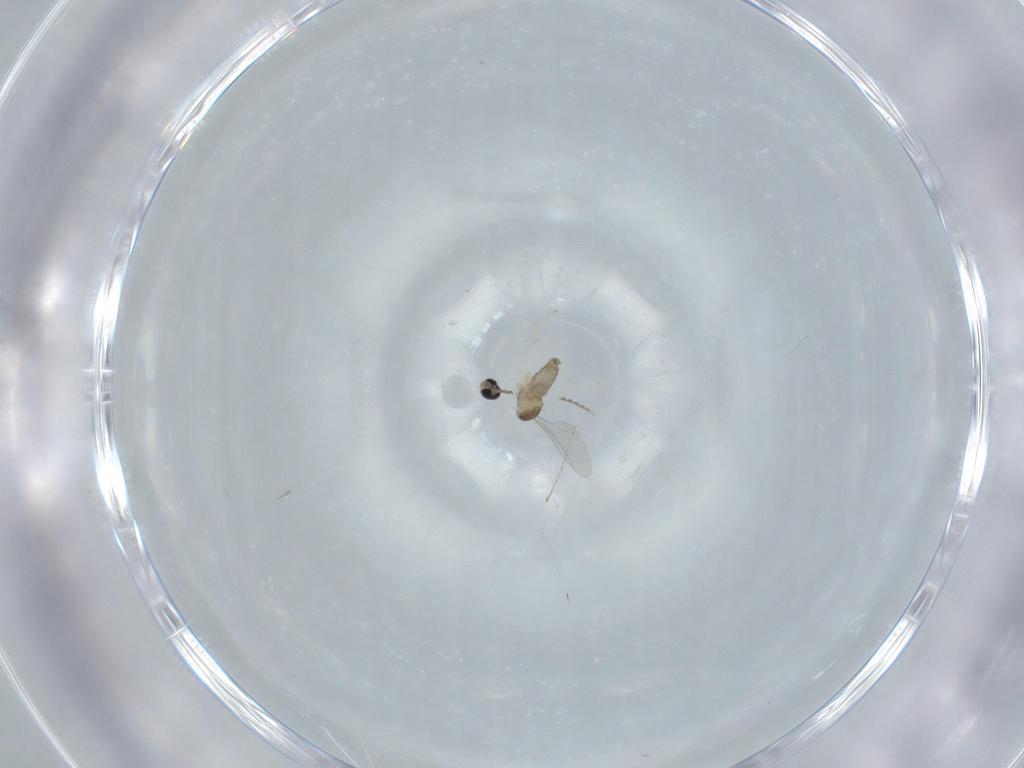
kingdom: Animalia
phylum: Arthropoda
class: Insecta
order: Diptera
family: Cecidomyiidae
